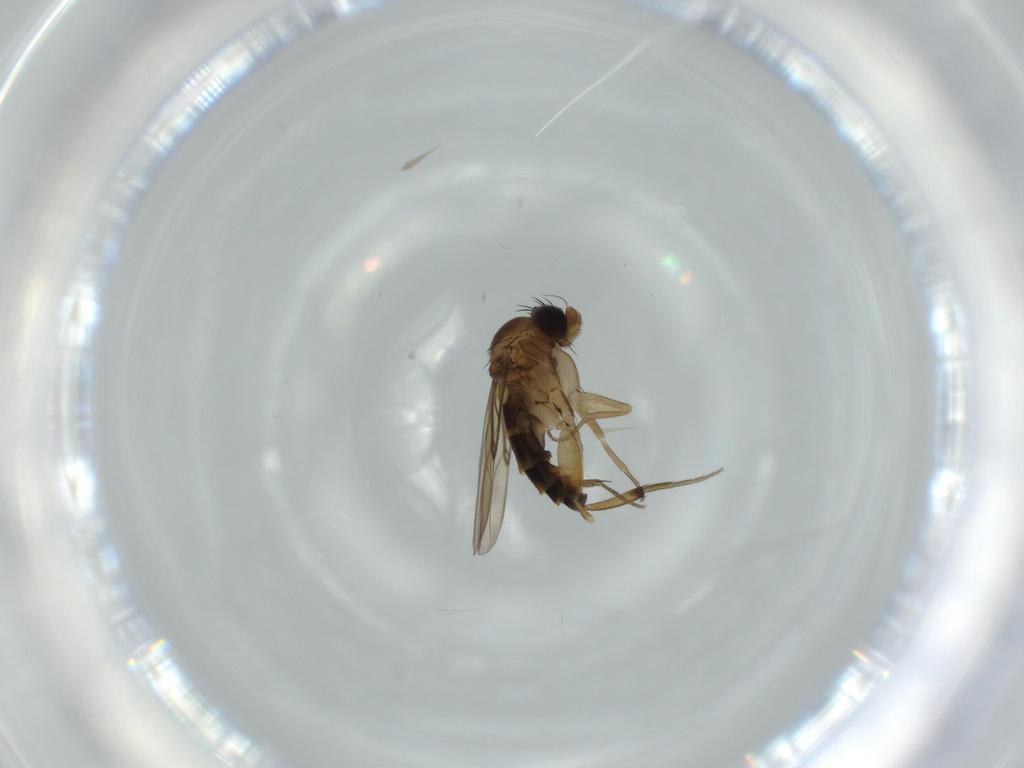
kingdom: Animalia
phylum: Arthropoda
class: Insecta
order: Diptera
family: Phoridae
